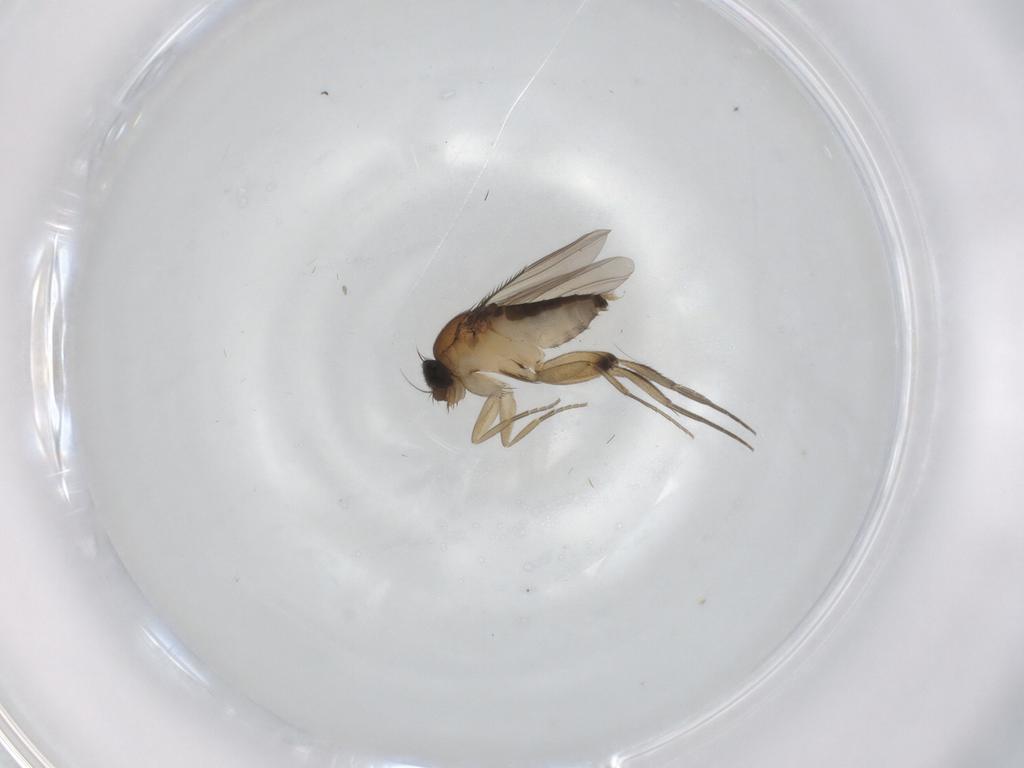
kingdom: Animalia
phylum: Arthropoda
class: Insecta
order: Diptera
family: Phoridae
